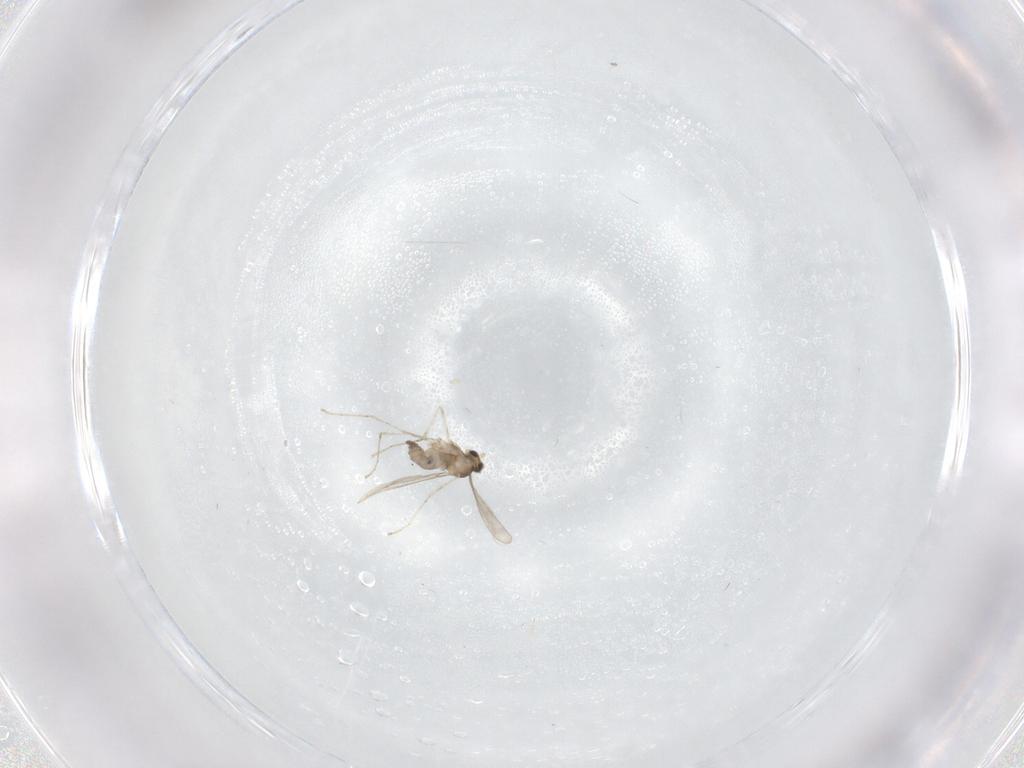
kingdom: Animalia
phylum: Arthropoda
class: Insecta
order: Diptera
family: Cecidomyiidae
